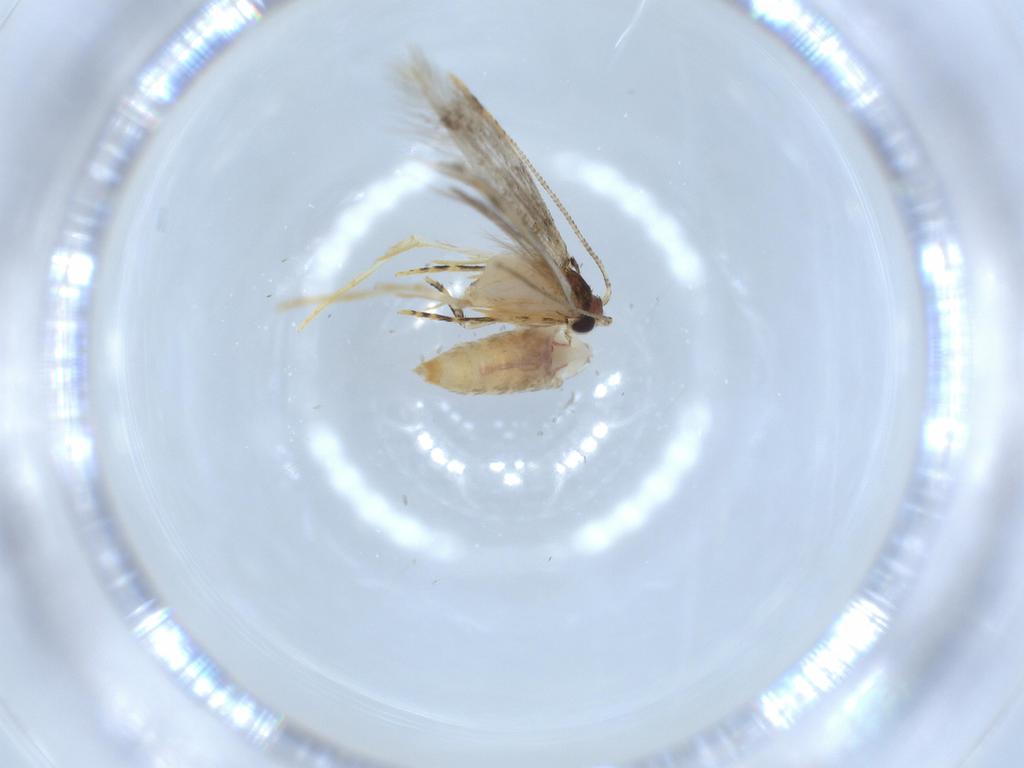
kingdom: Animalia
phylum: Arthropoda
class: Insecta
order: Lepidoptera
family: Tineidae
